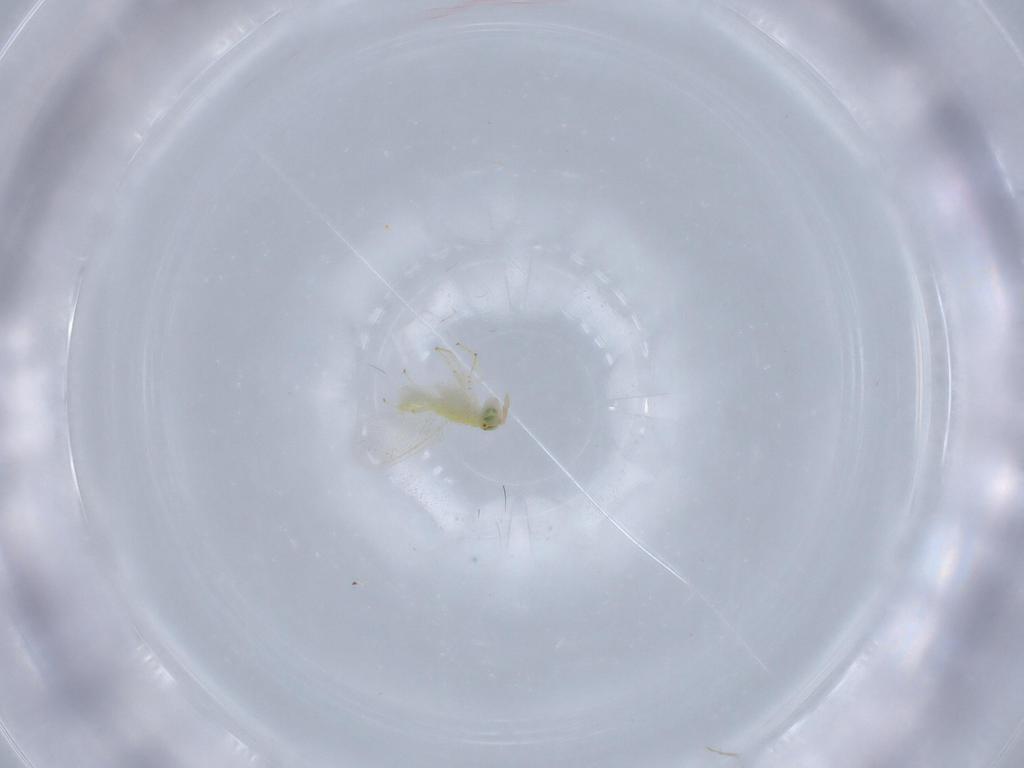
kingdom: Animalia
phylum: Arthropoda
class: Insecta
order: Hymenoptera
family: Aphelinidae
